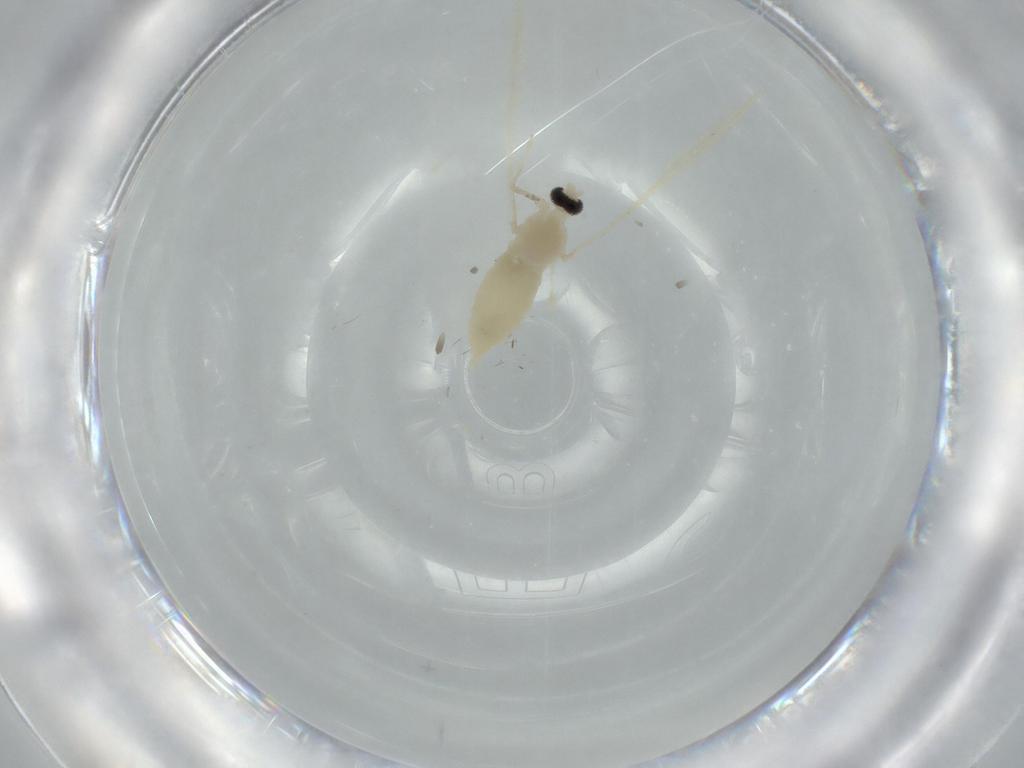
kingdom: Animalia
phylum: Arthropoda
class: Insecta
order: Diptera
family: Cecidomyiidae
